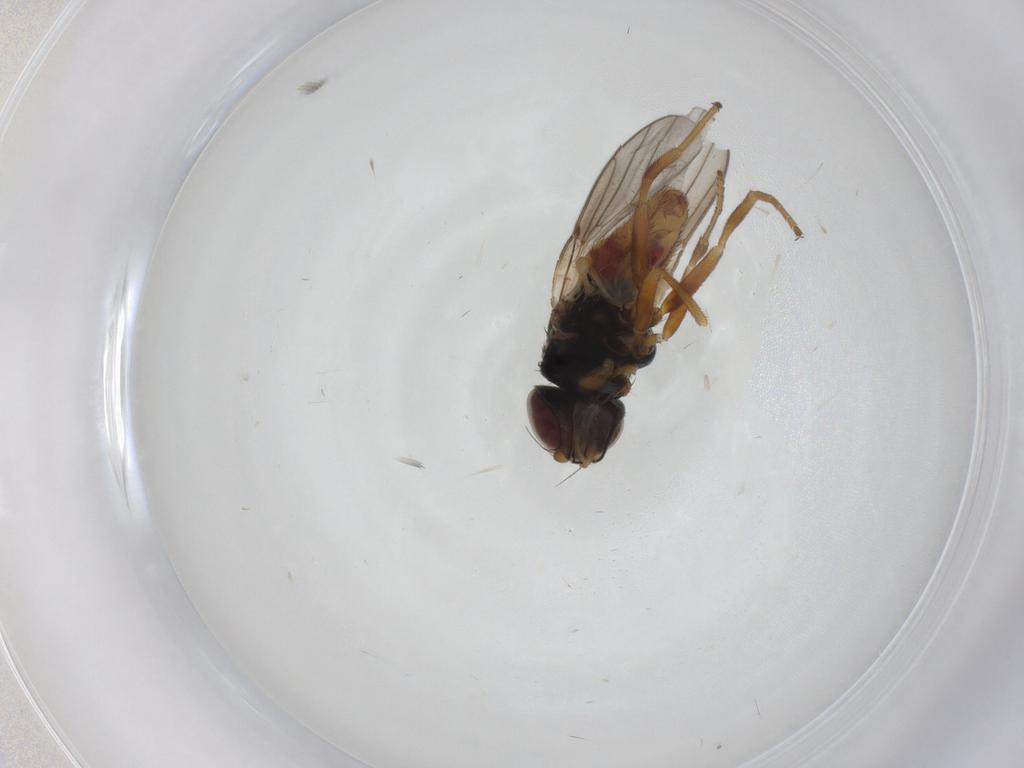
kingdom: Animalia
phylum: Arthropoda
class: Insecta
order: Diptera
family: Chloropidae
